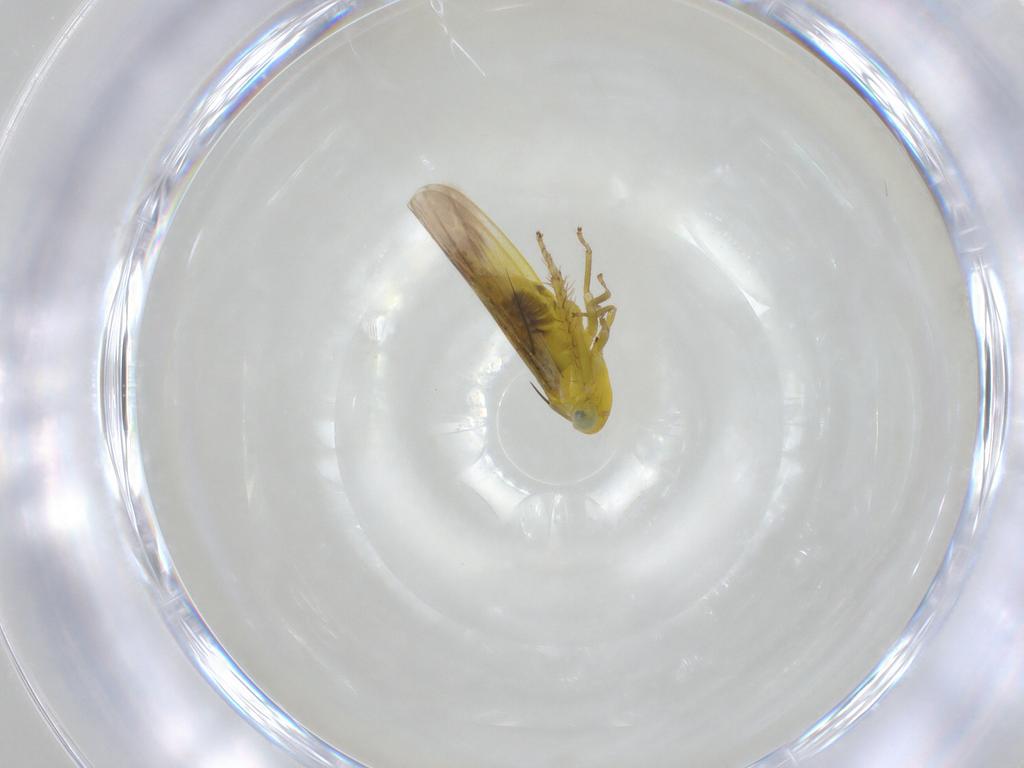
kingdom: Animalia
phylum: Arthropoda
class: Insecta
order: Hemiptera
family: Cicadellidae
